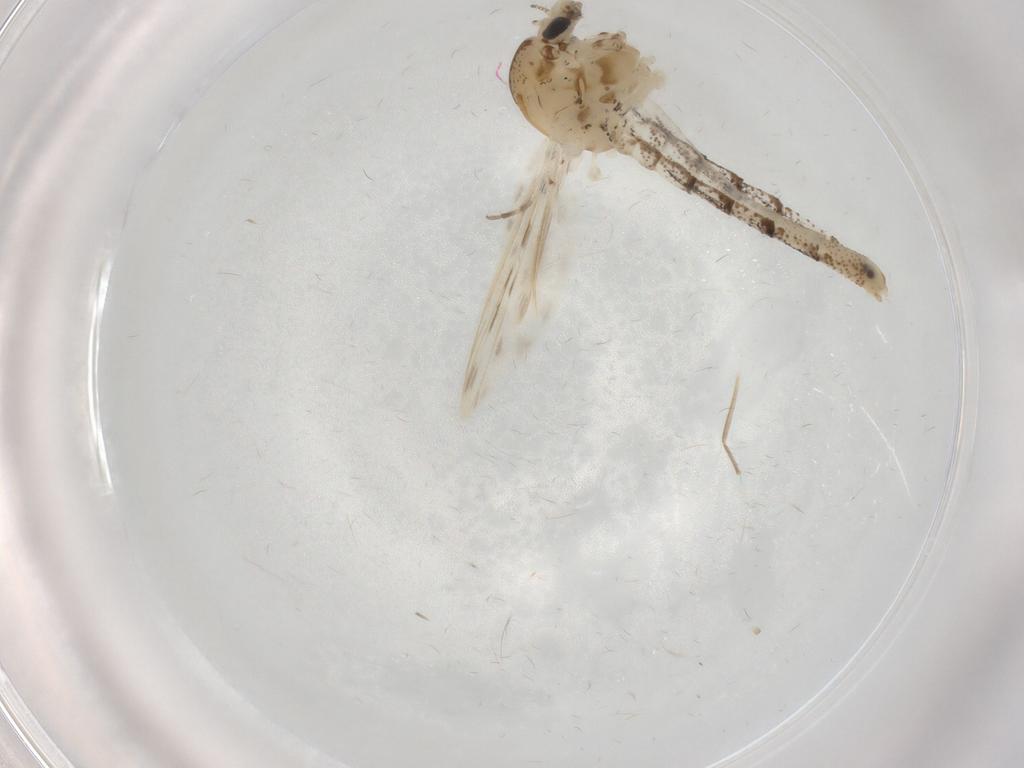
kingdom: Animalia
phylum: Arthropoda
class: Insecta
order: Diptera
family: Chaoboridae
